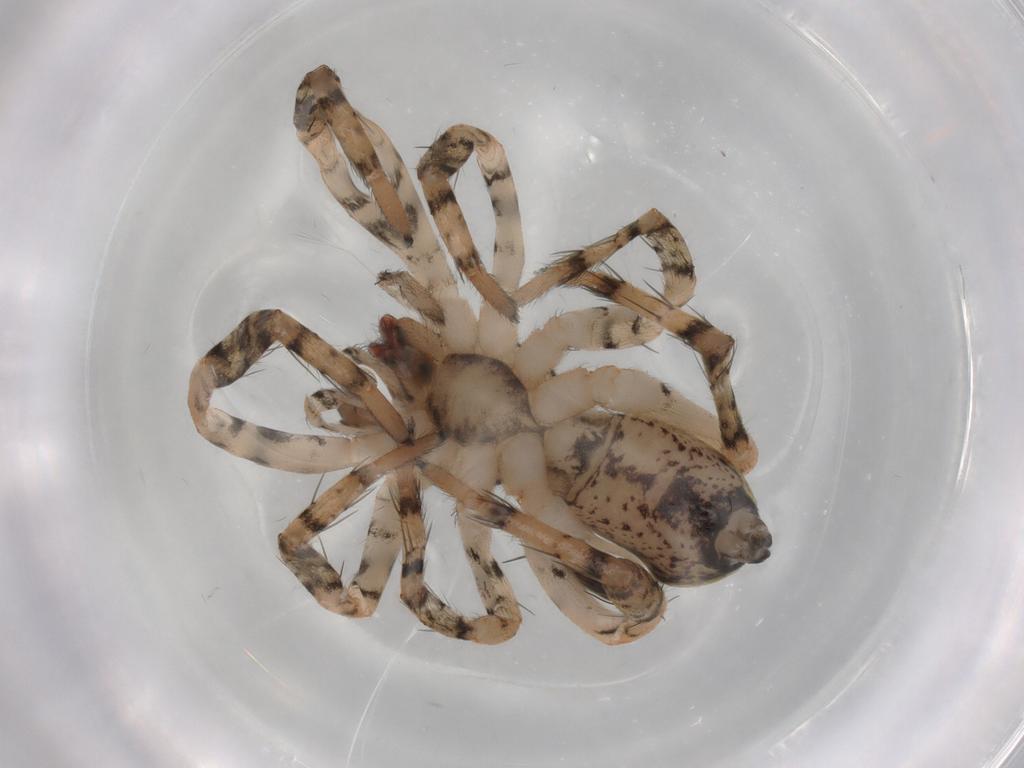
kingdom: Animalia
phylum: Arthropoda
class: Arachnida
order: Araneae
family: Anyphaenidae
